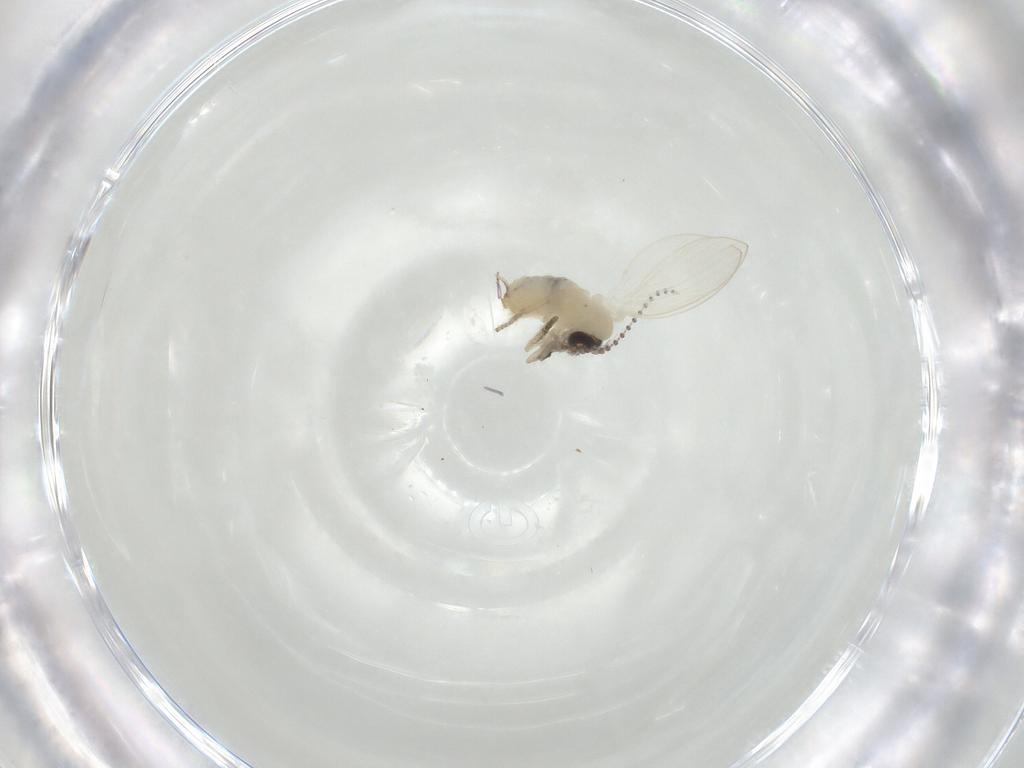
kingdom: Animalia
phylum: Arthropoda
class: Insecta
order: Diptera
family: Psychodidae
